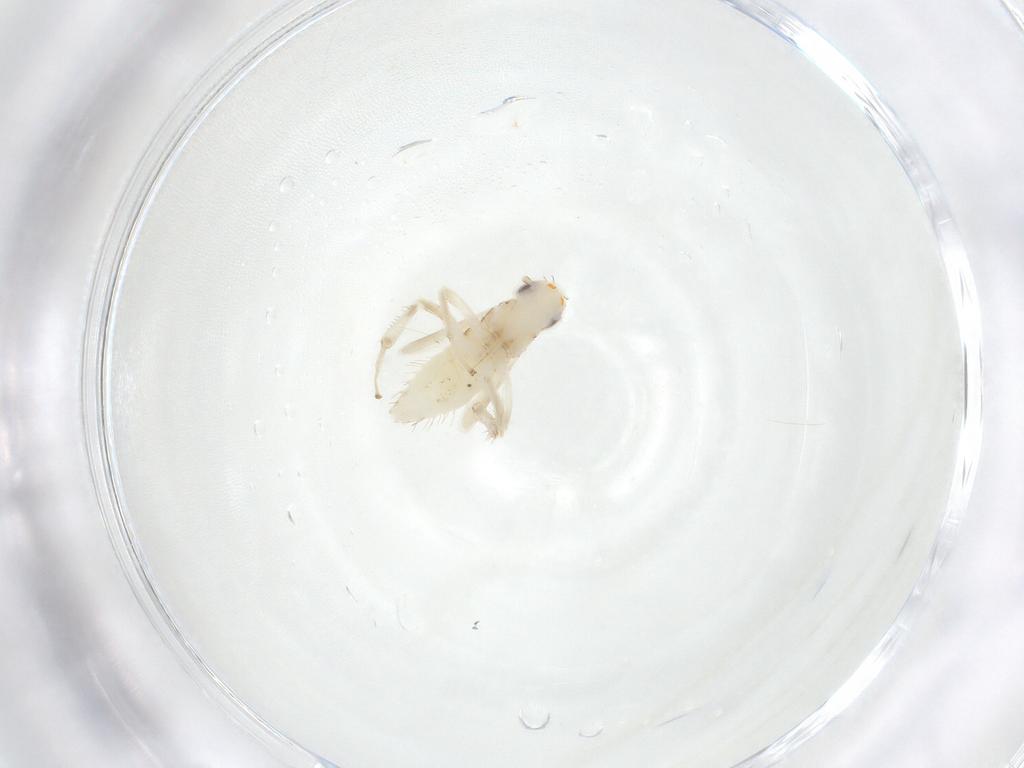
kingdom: Animalia
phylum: Arthropoda
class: Insecta
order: Hemiptera
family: Cicadellidae
